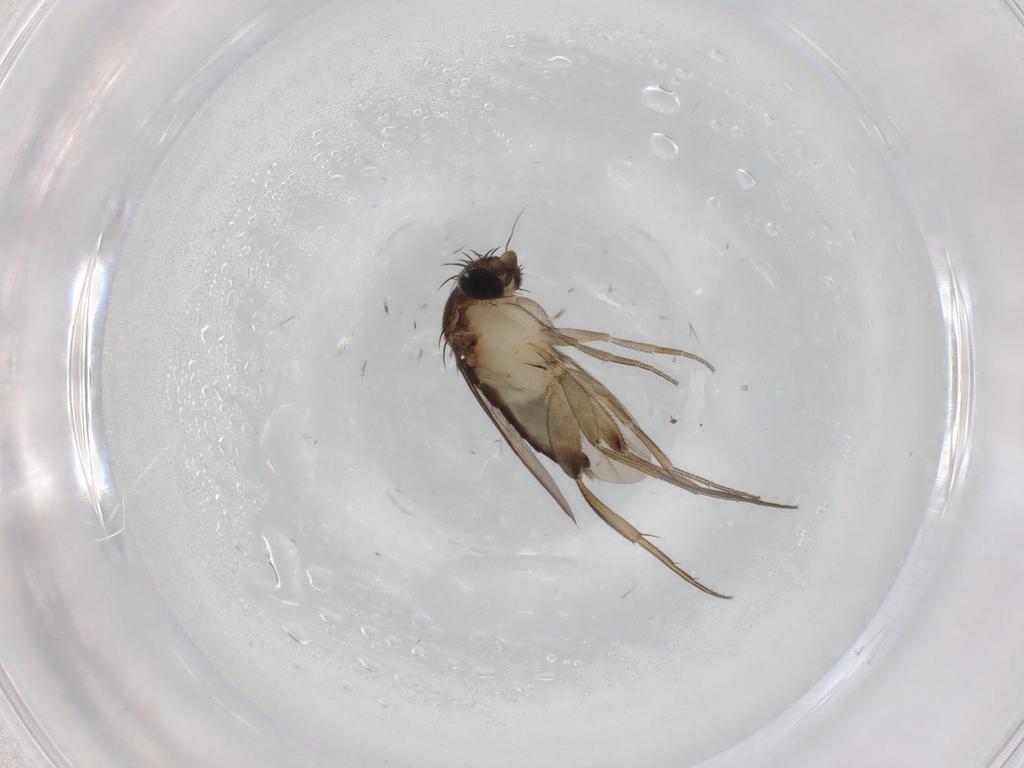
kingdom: Animalia
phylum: Arthropoda
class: Insecta
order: Diptera
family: Phoridae
